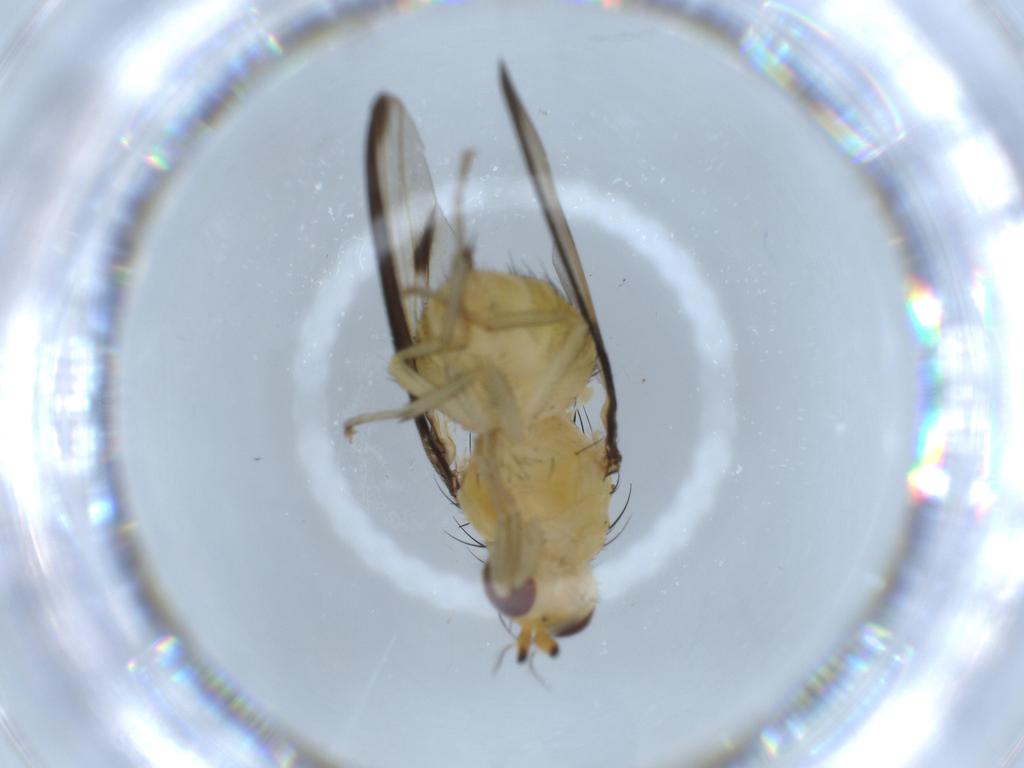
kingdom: Animalia
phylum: Arthropoda
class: Insecta
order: Diptera
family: Lauxaniidae
